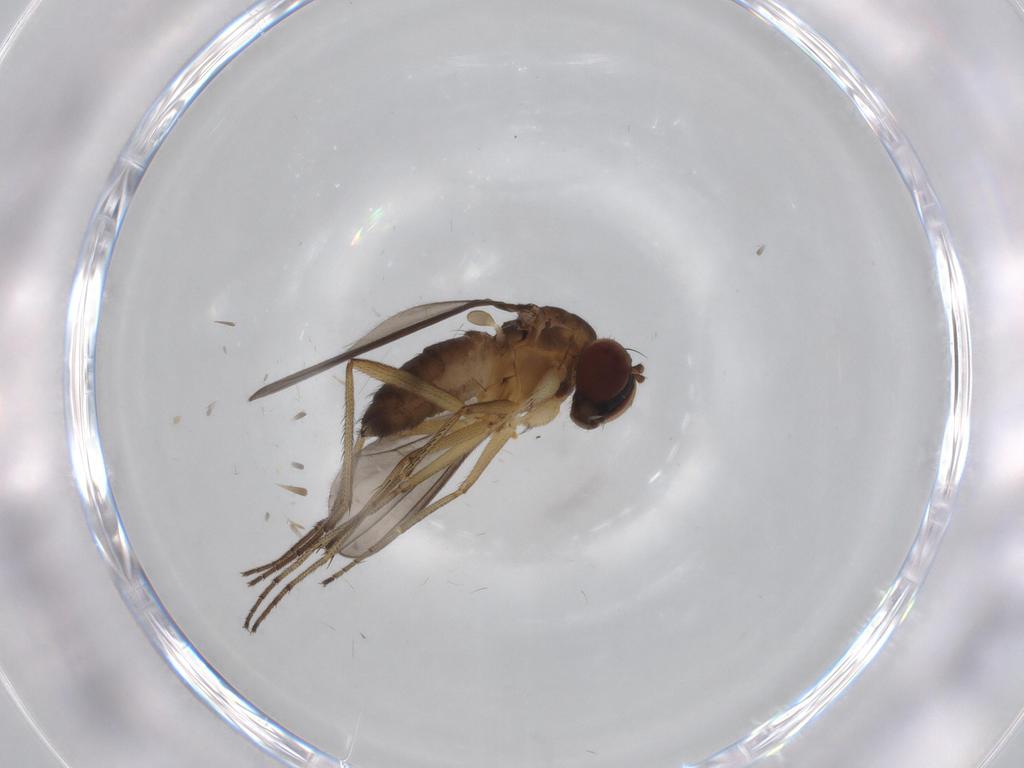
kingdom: Animalia
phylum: Arthropoda
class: Insecta
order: Diptera
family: Dolichopodidae
